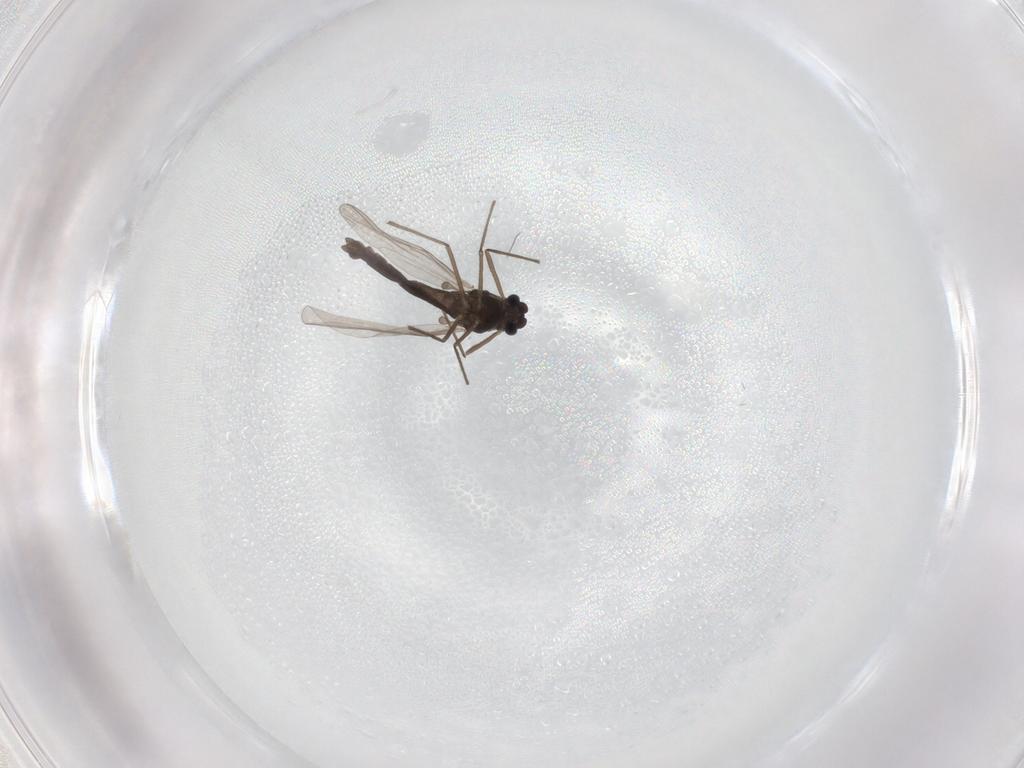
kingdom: Animalia
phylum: Arthropoda
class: Insecta
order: Diptera
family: Chironomidae
